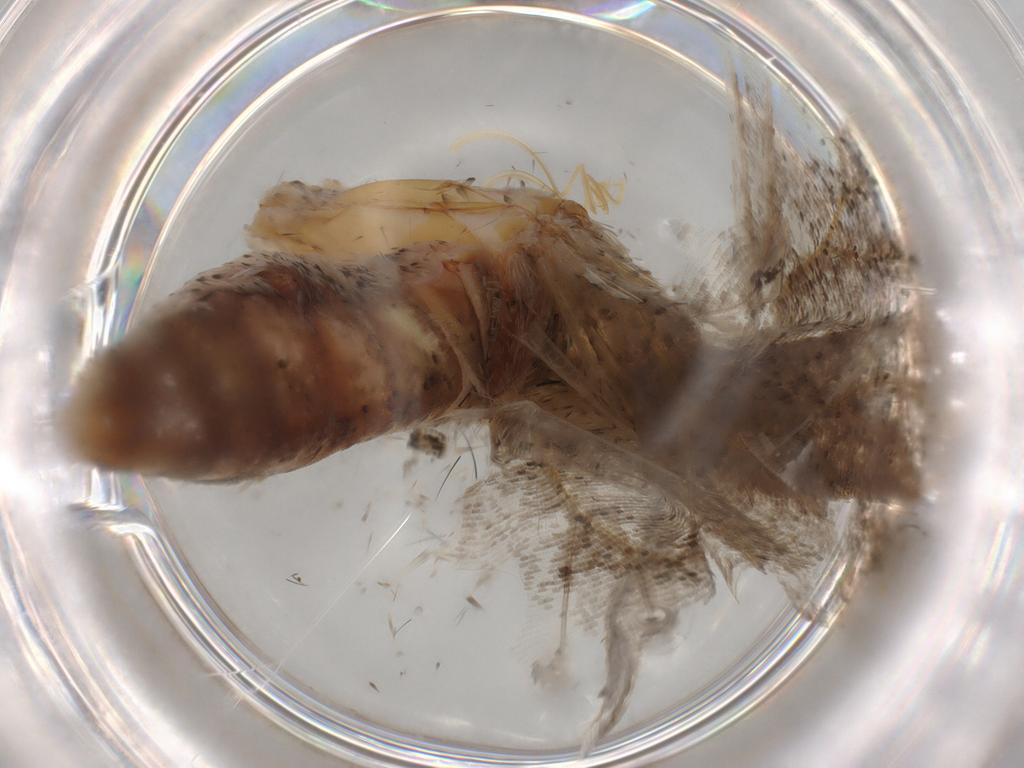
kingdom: Animalia
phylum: Arthropoda
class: Insecta
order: Lepidoptera
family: Geometridae
